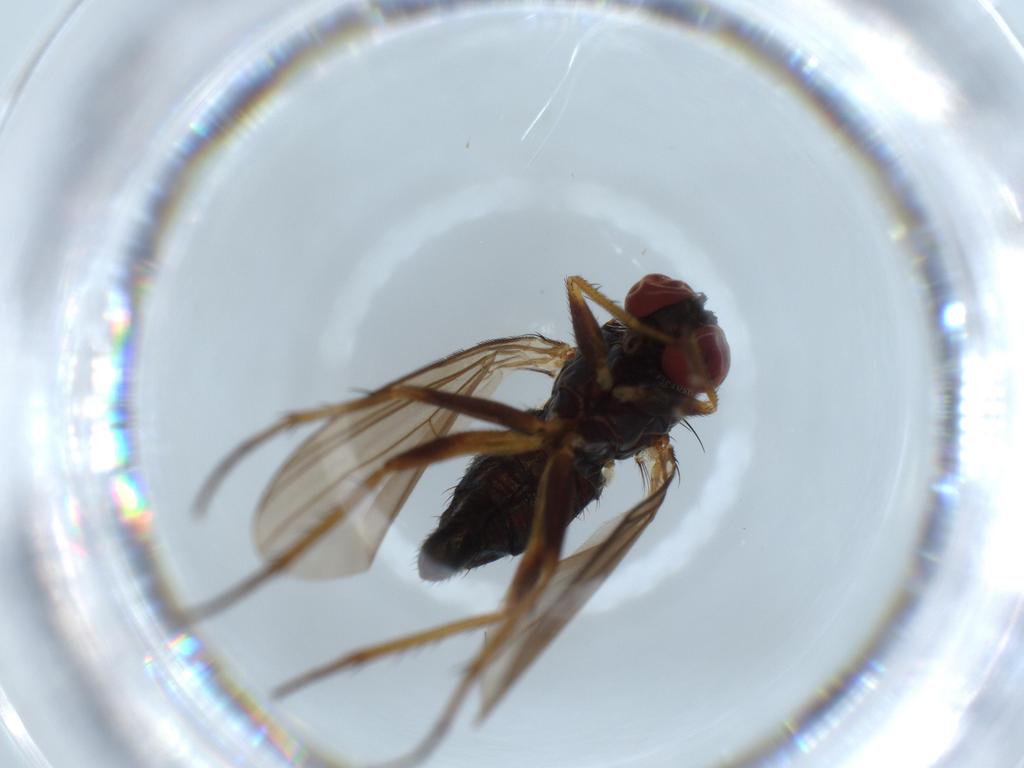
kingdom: Animalia
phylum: Arthropoda
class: Insecta
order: Diptera
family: Dolichopodidae
